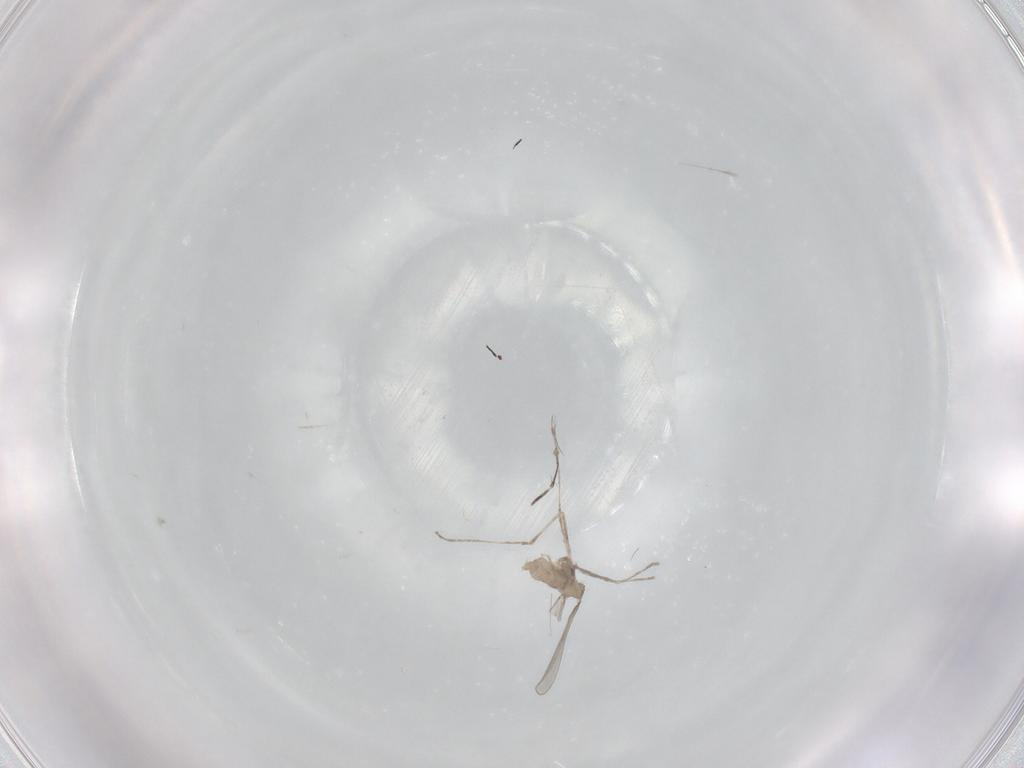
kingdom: Animalia
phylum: Arthropoda
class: Insecta
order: Diptera
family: Cecidomyiidae
